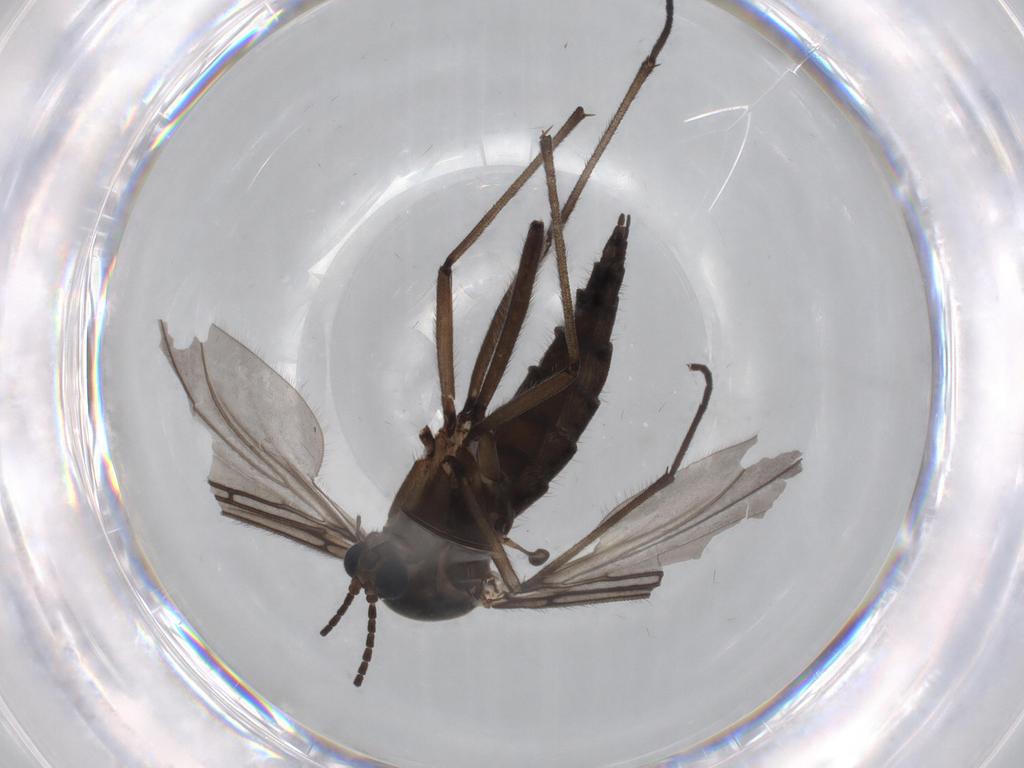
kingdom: Animalia
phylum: Arthropoda
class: Insecta
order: Diptera
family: Sciaridae
